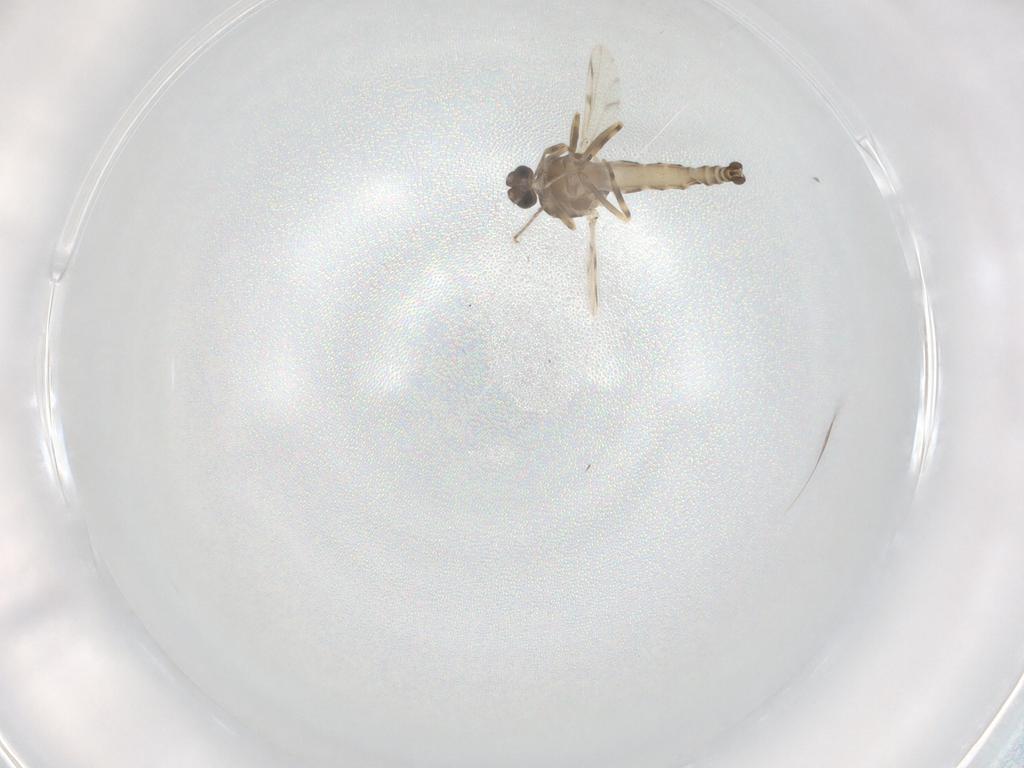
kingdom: Animalia
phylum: Arthropoda
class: Insecta
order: Diptera
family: Ceratopogonidae
